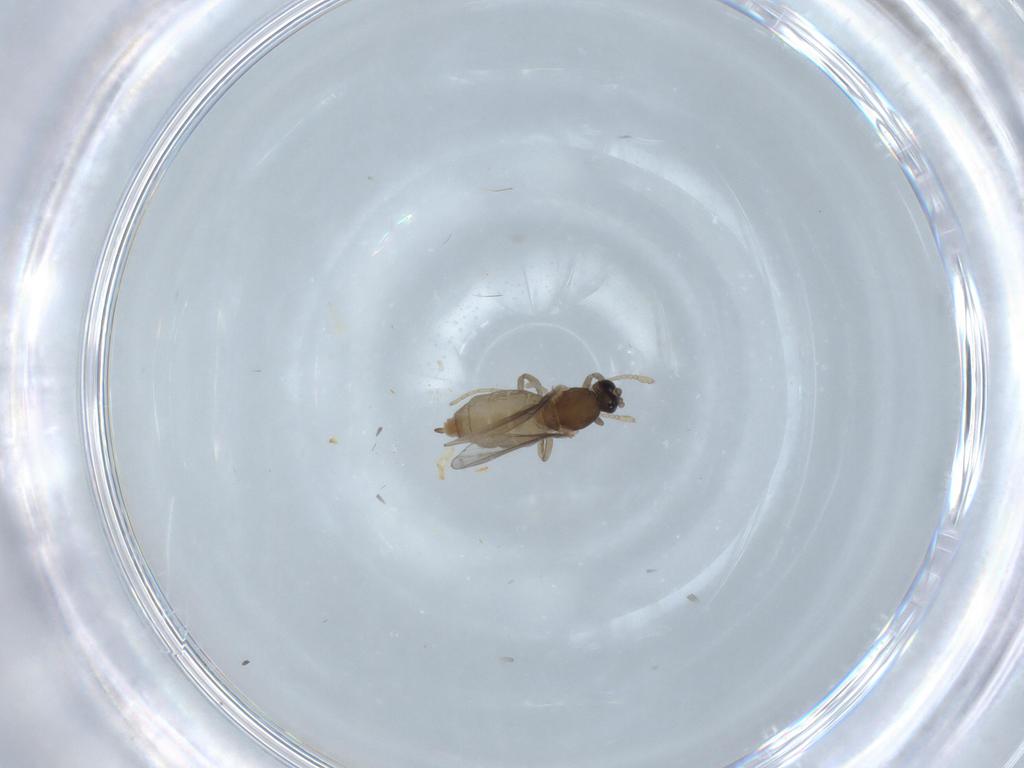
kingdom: Animalia
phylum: Arthropoda
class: Insecta
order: Diptera
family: Cecidomyiidae
